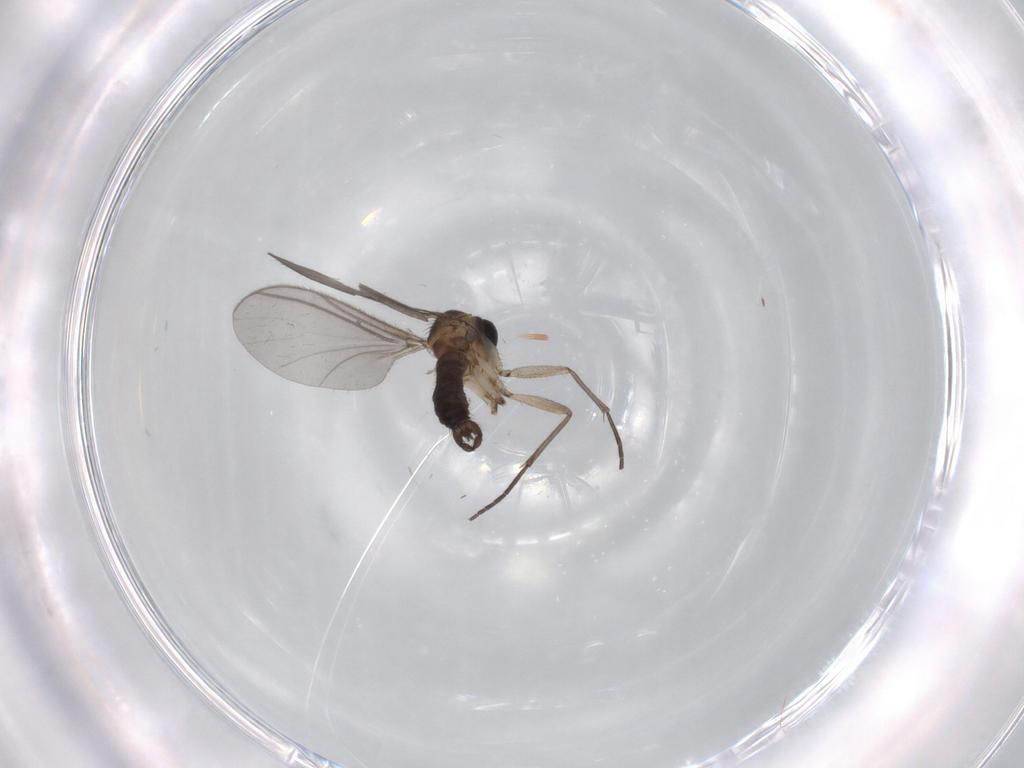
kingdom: Animalia
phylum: Arthropoda
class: Insecta
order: Diptera
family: Chironomidae
